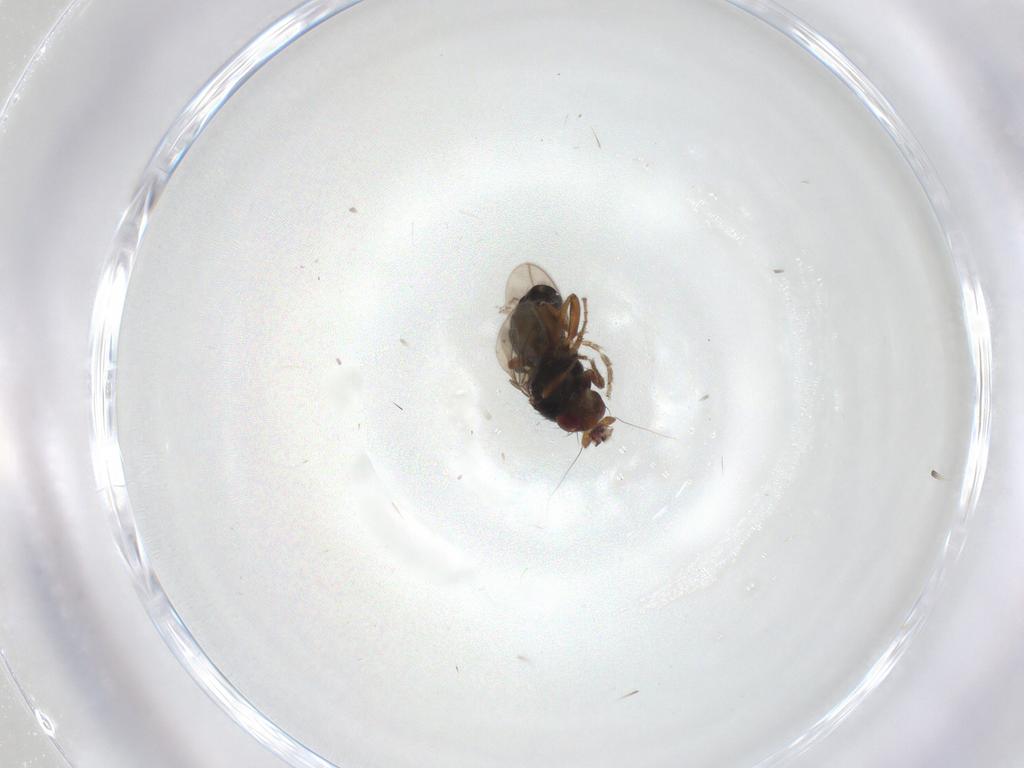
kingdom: Animalia
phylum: Arthropoda
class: Insecta
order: Diptera
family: Sphaeroceridae
